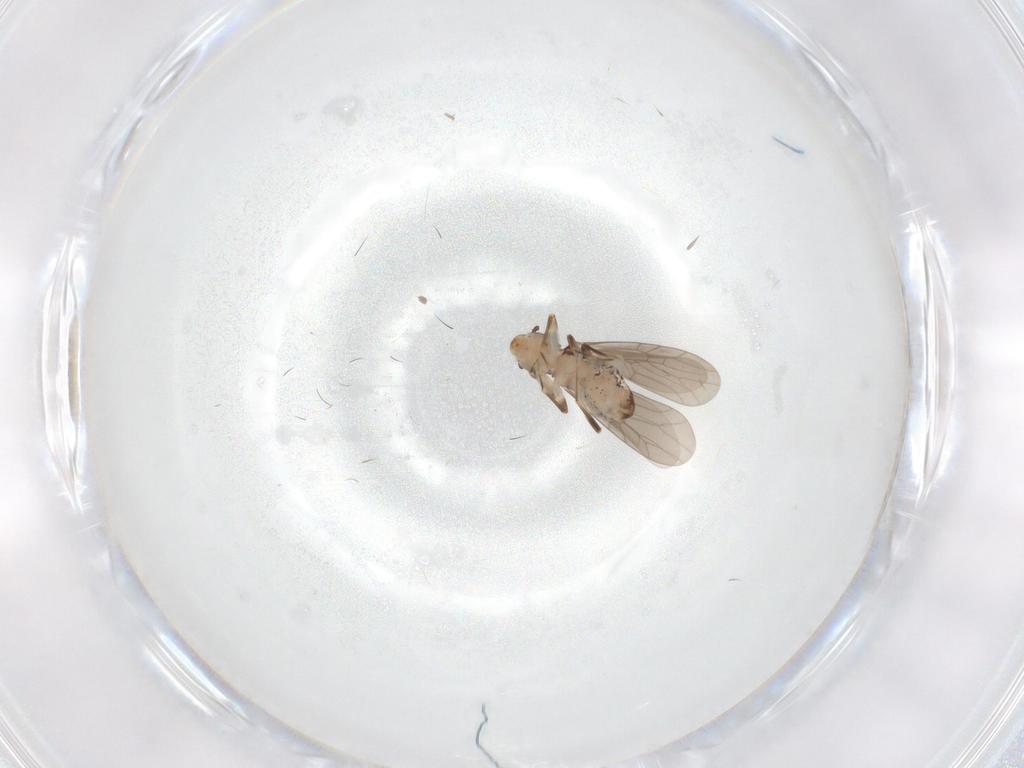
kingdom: Animalia
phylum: Arthropoda
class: Insecta
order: Psocodea
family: Lepidopsocidae
